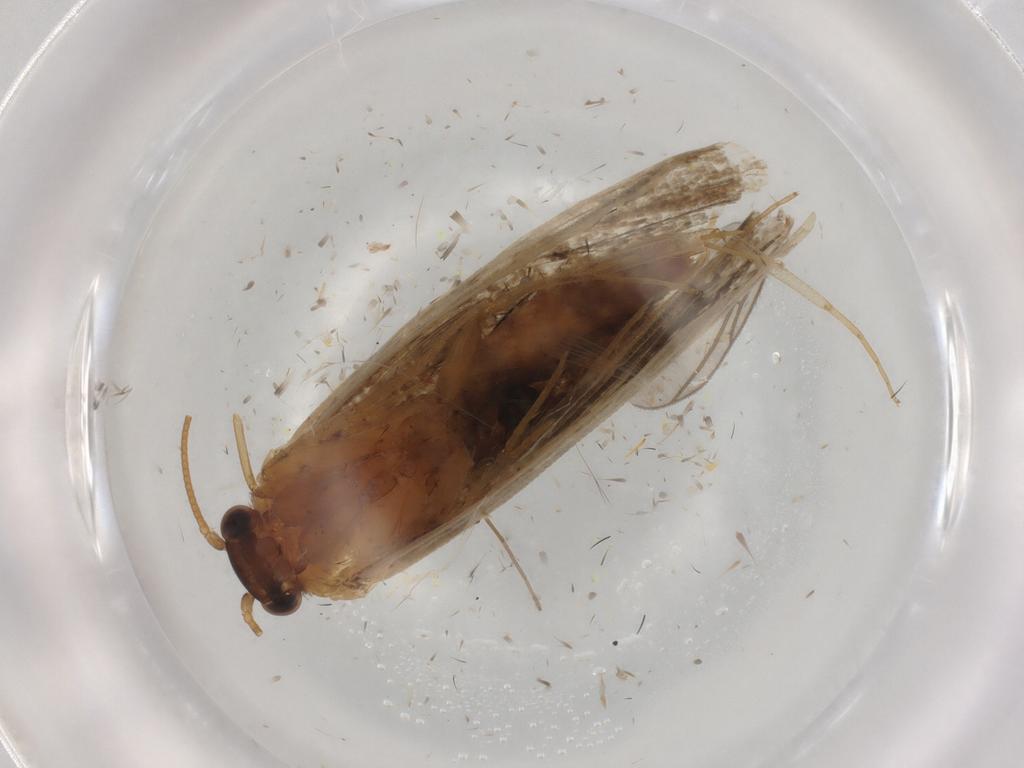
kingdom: Animalia
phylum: Arthropoda
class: Insecta
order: Lepidoptera
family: Nepticulidae
